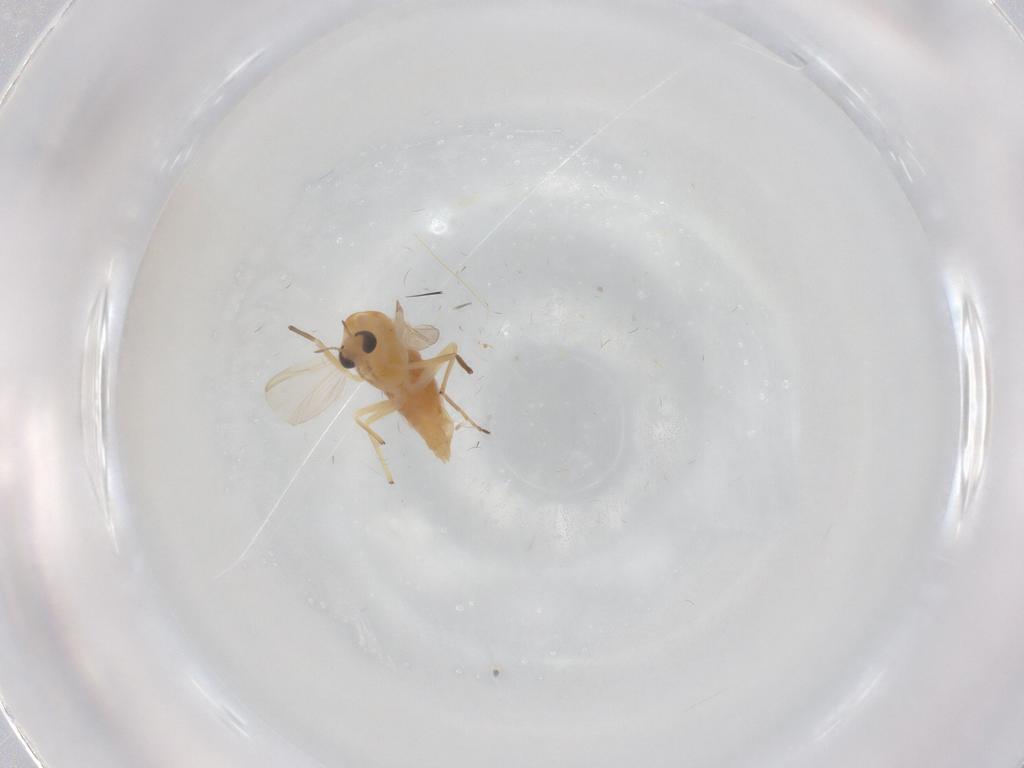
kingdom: Animalia
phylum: Arthropoda
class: Insecta
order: Diptera
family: Chironomidae
